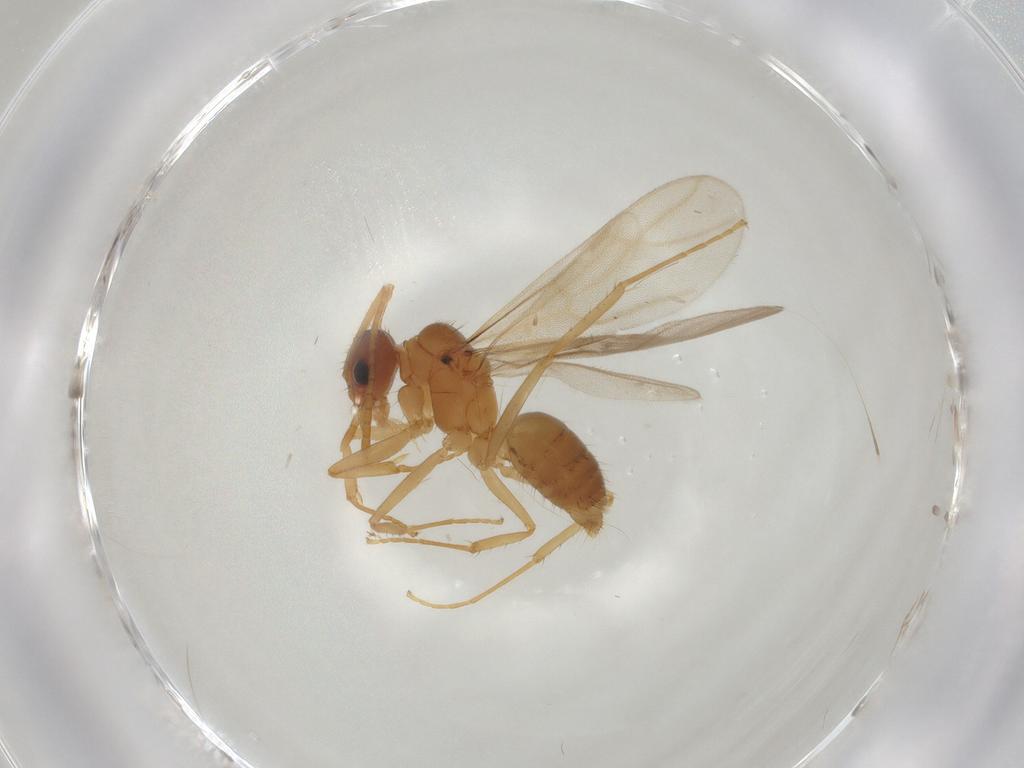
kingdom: Animalia
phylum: Arthropoda
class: Insecta
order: Hymenoptera
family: Formicidae
